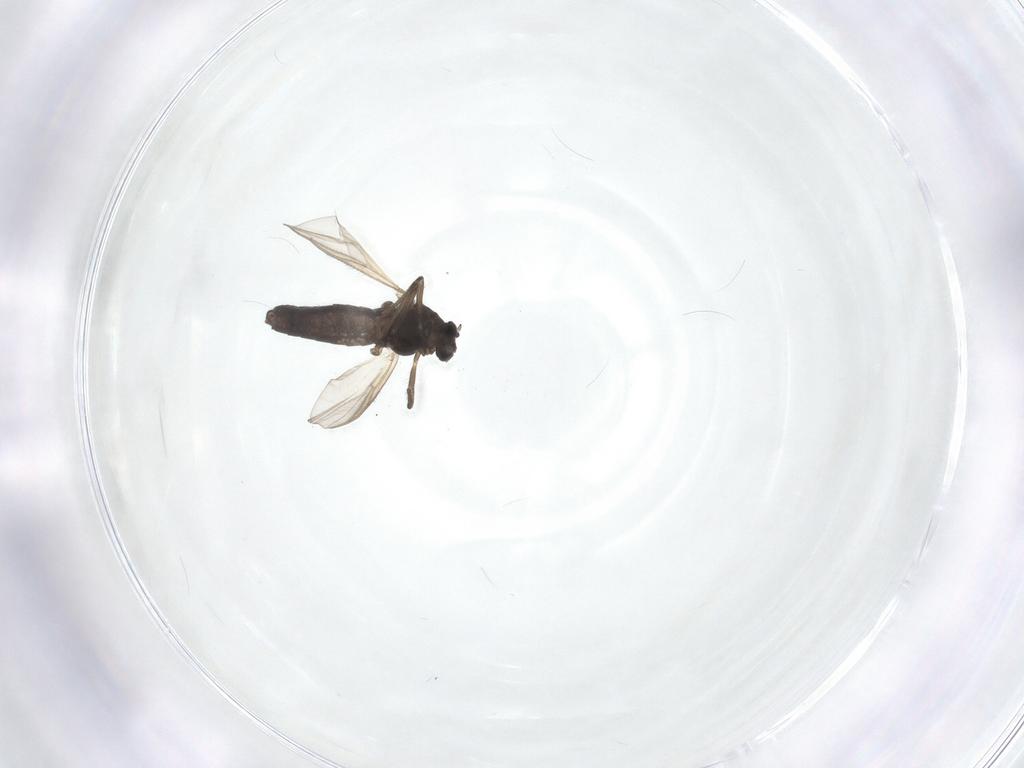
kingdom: Animalia
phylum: Arthropoda
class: Insecta
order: Diptera
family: Chironomidae
